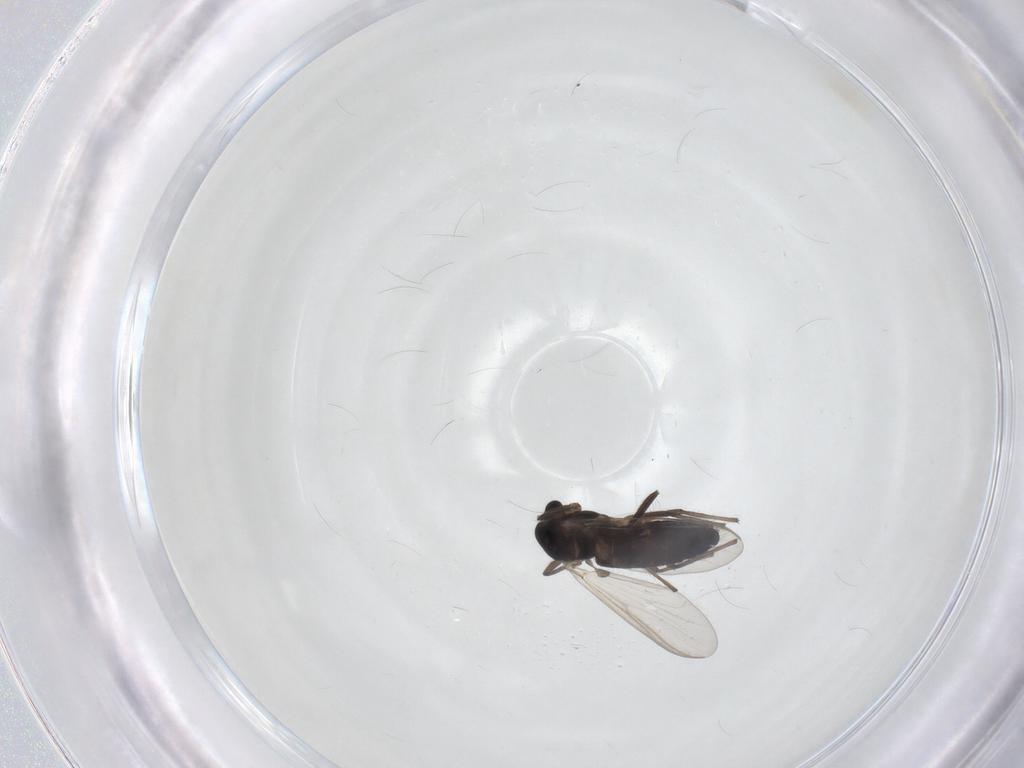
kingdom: Animalia
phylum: Arthropoda
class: Insecta
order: Diptera
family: Chironomidae
